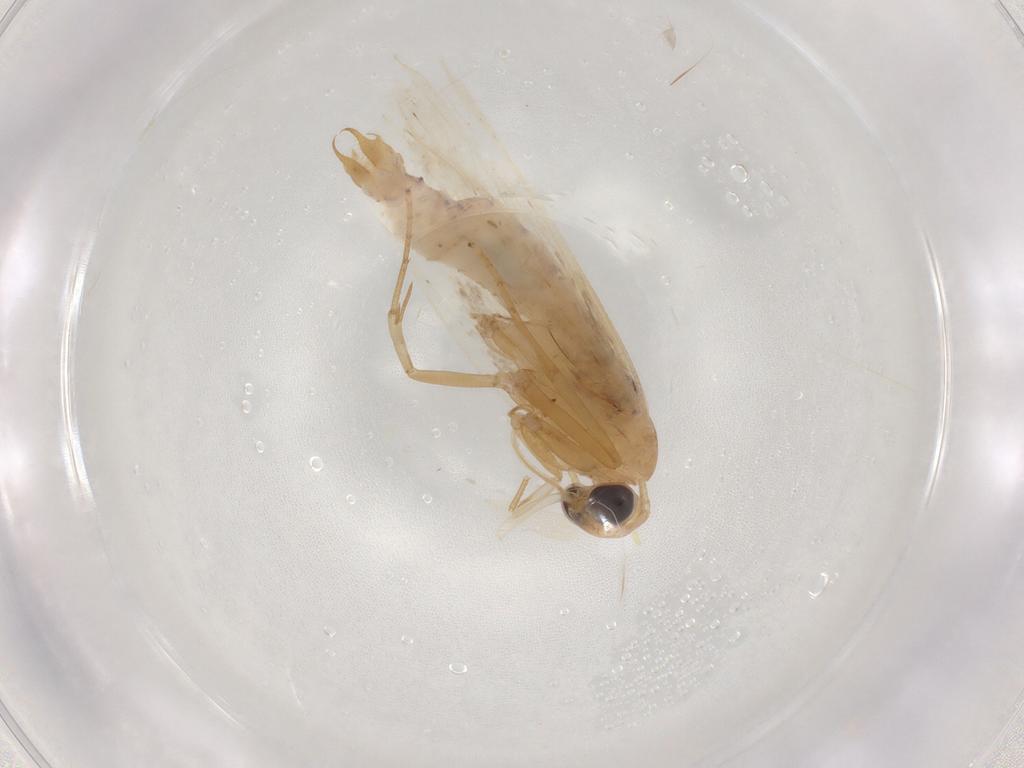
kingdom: Animalia
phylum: Arthropoda
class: Insecta
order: Lepidoptera
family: Depressariidae
